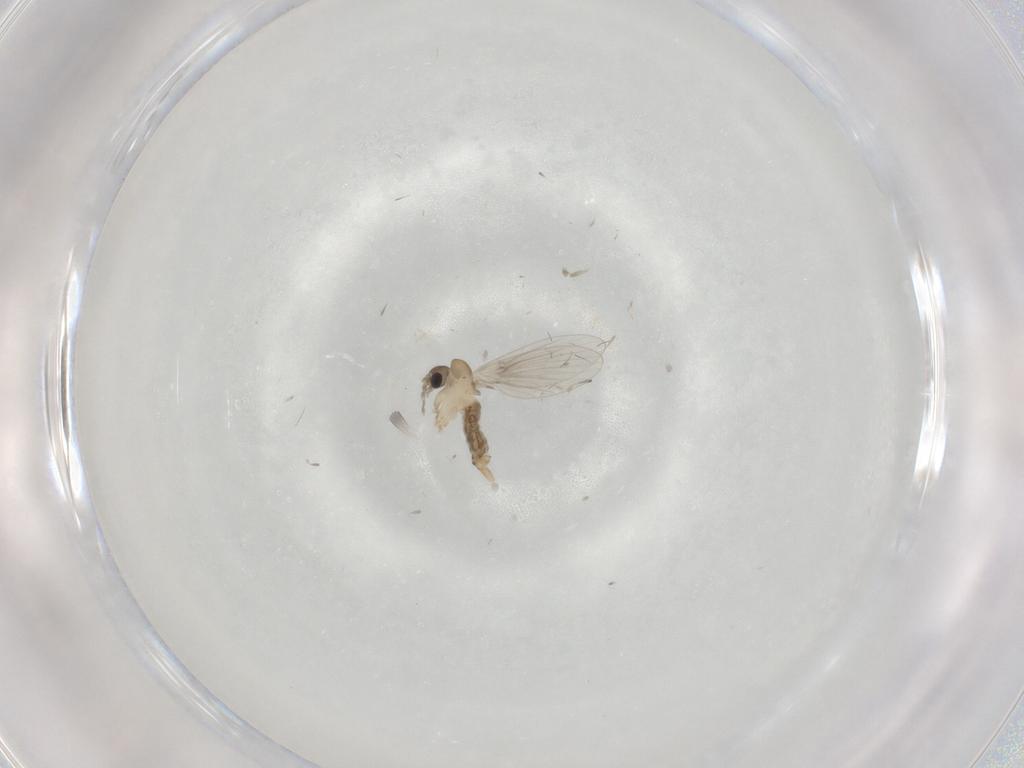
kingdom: Animalia
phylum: Arthropoda
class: Insecta
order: Diptera
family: Psychodidae
